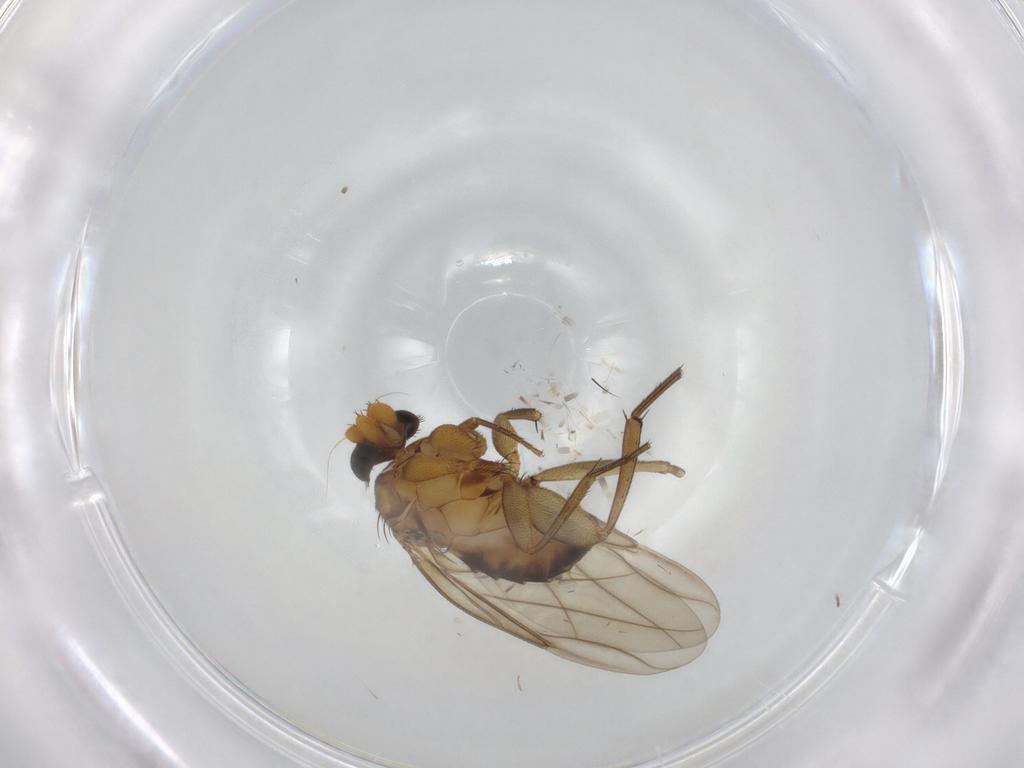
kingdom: Animalia
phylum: Arthropoda
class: Insecta
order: Diptera
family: Phoridae
